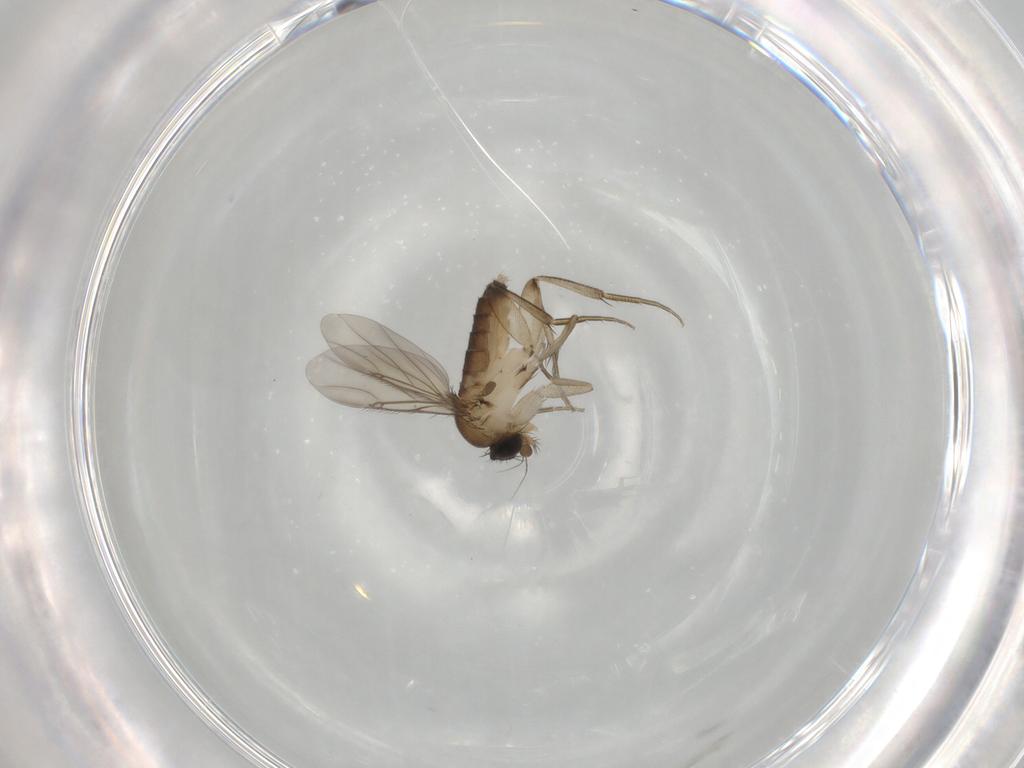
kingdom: Animalia
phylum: Arthropoda
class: Insecta
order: Diptera
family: Phoridae
